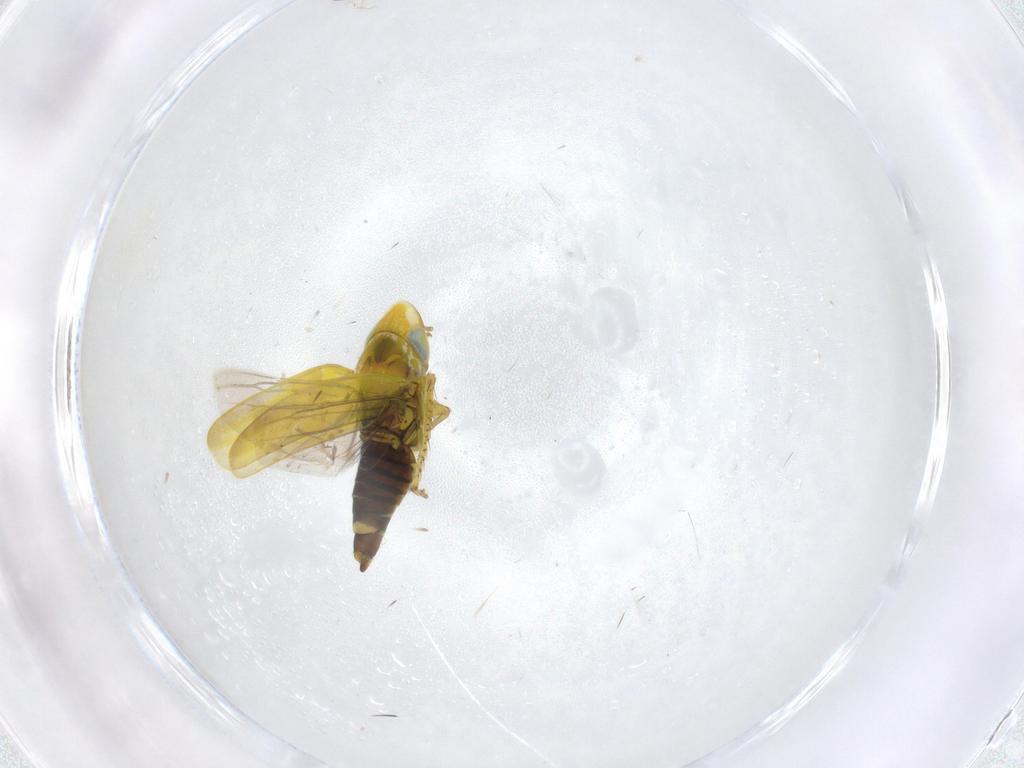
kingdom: Animalia
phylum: Arthropoda
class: Insecta
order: Hemiptera
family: Cicadellidae
